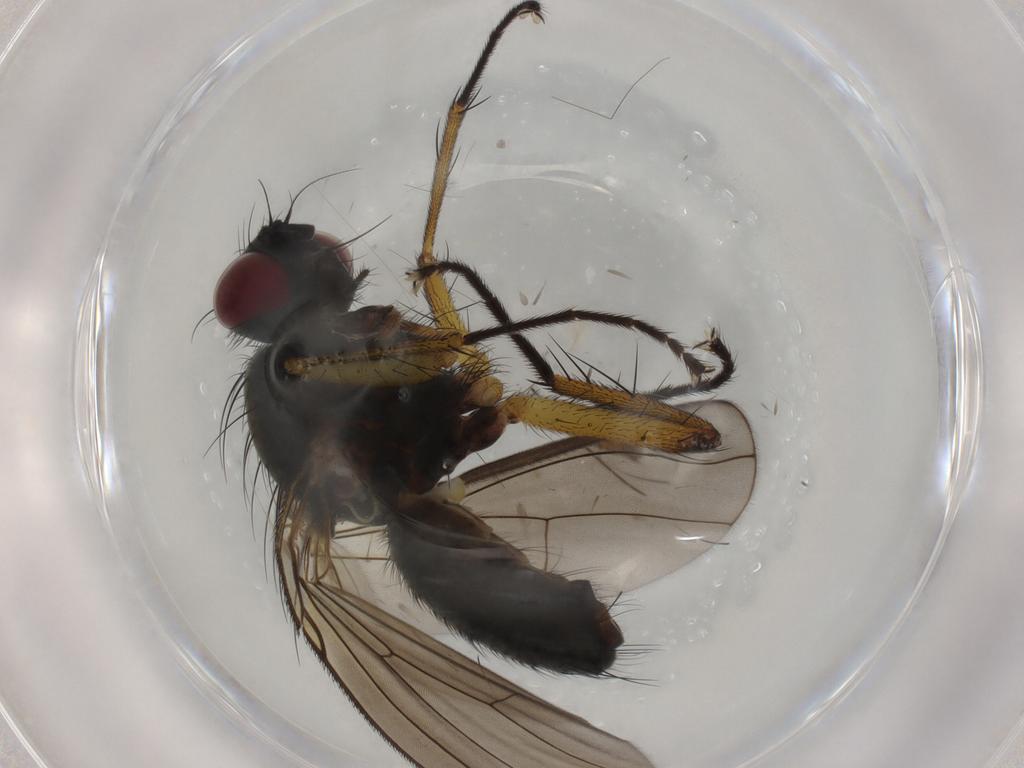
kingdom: Animalia
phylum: Arthropoda
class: Insecta
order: Diptera
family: Muscidae
